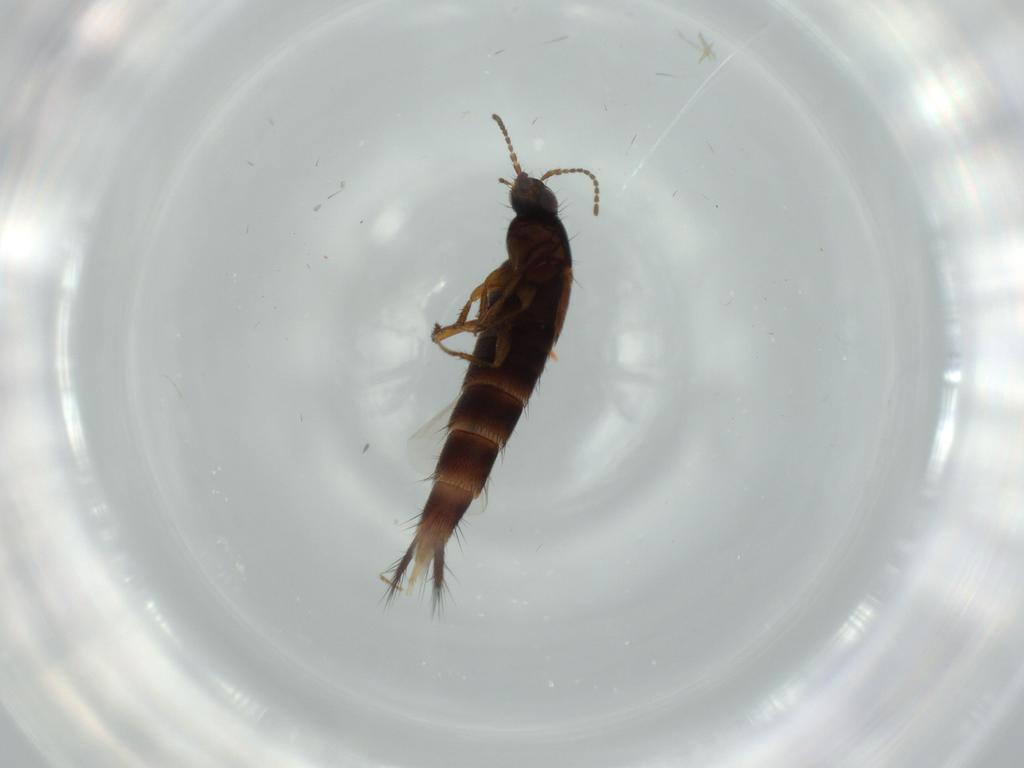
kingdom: Animalia
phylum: Arthropoda
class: Insecta
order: Coleoptera
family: Staphylinidae
